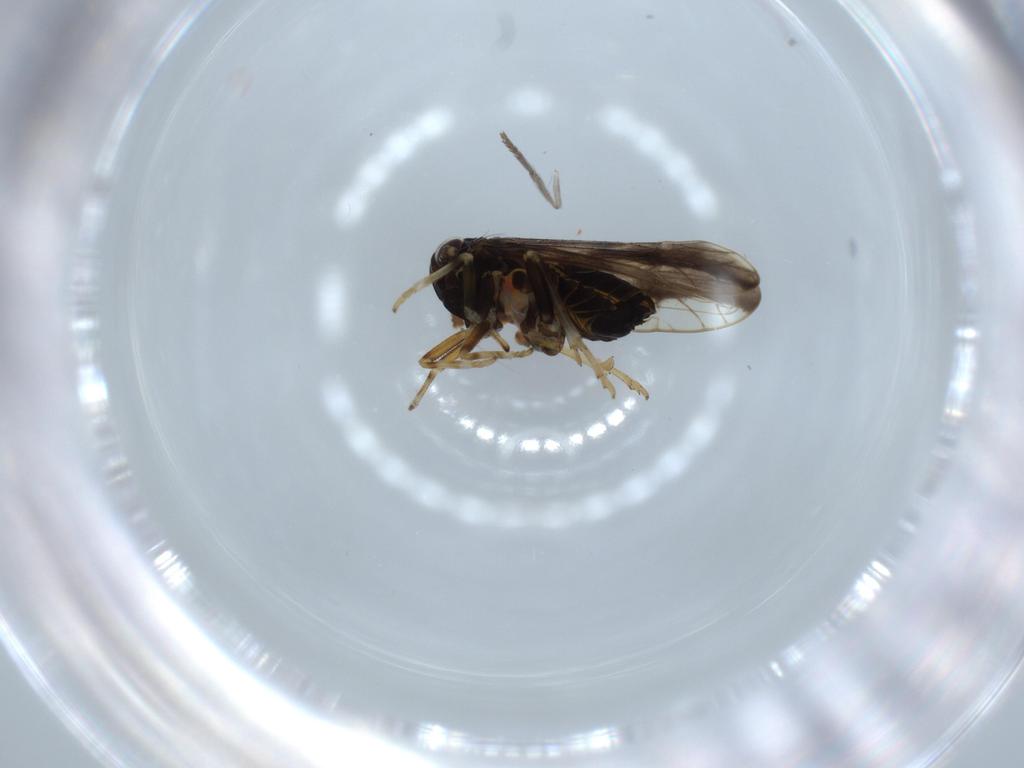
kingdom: Animalia
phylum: Arthropoda
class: Insecta
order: Hemiptera
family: Delphacidae
